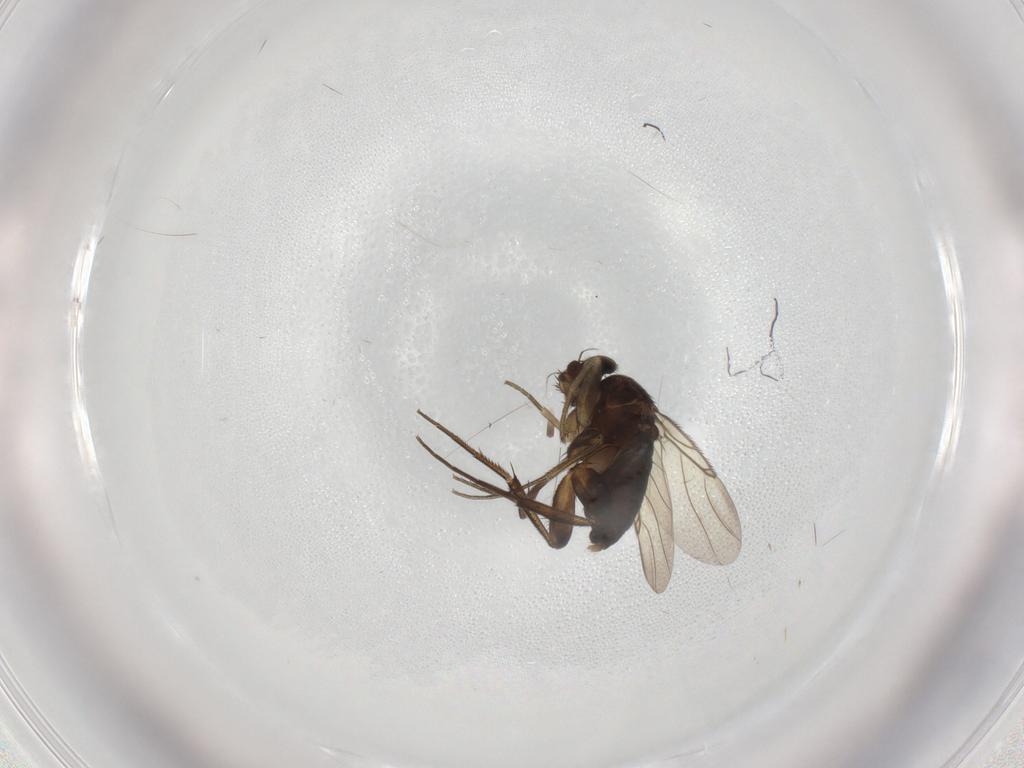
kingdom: Animalia
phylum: Arthropoda
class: Insecta
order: Diptera
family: Phoridae
